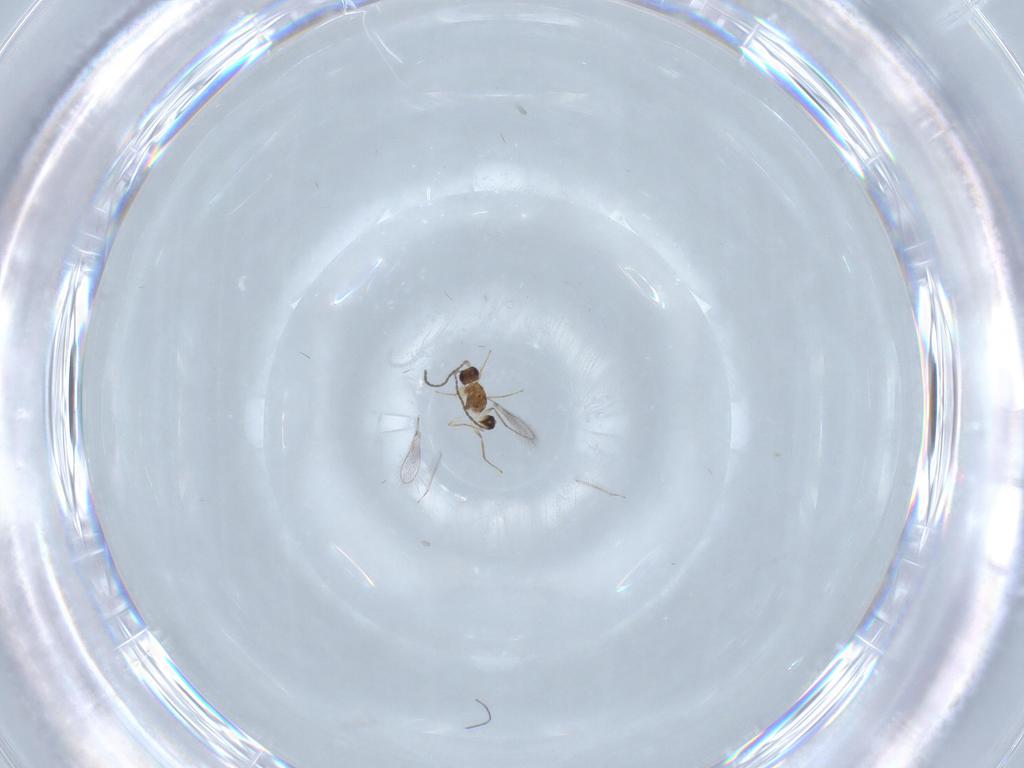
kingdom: Animalia
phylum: Arthropoda
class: Insecta
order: Hymenoptera
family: Mymaridae
